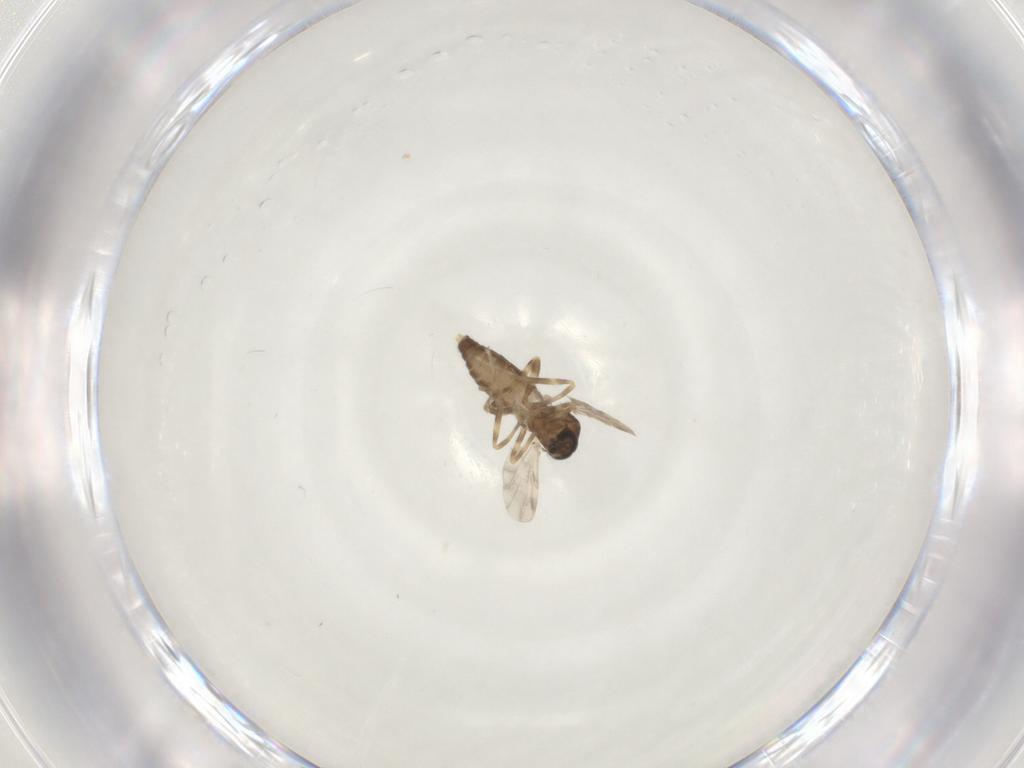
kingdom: Animalia
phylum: Arthropoda
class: Insecta
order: Diptera
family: Ceratopogonidae
